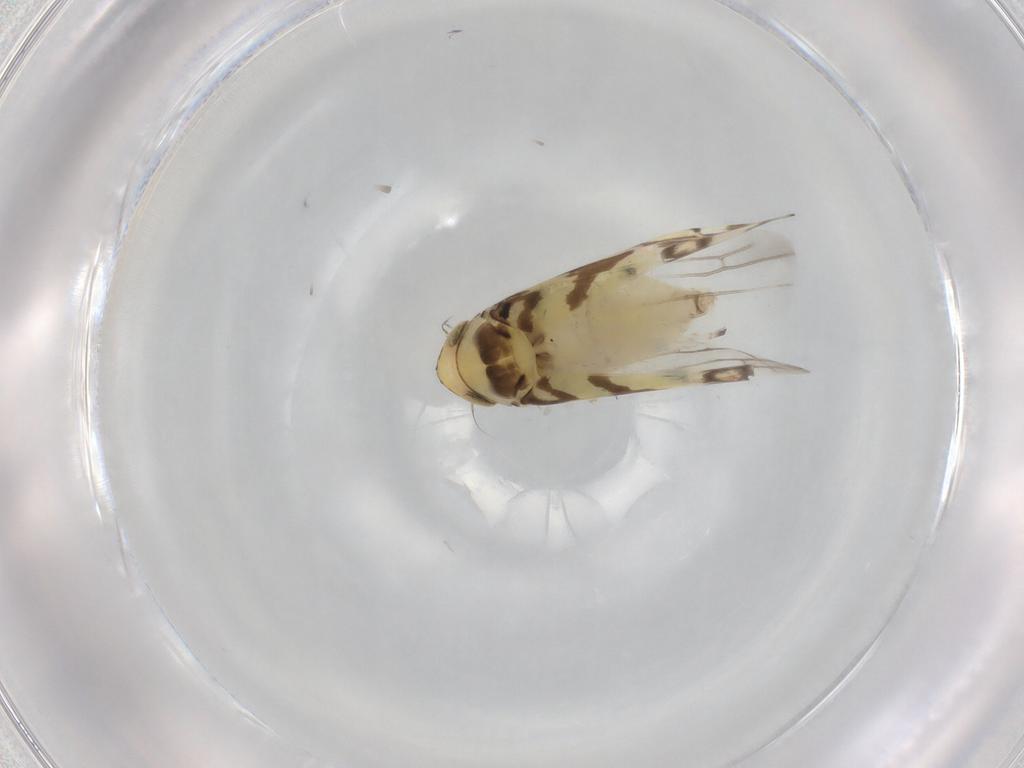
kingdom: Animalia
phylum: Arthropoda
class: Insecta
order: Hemiptera
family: Cicadellidae
